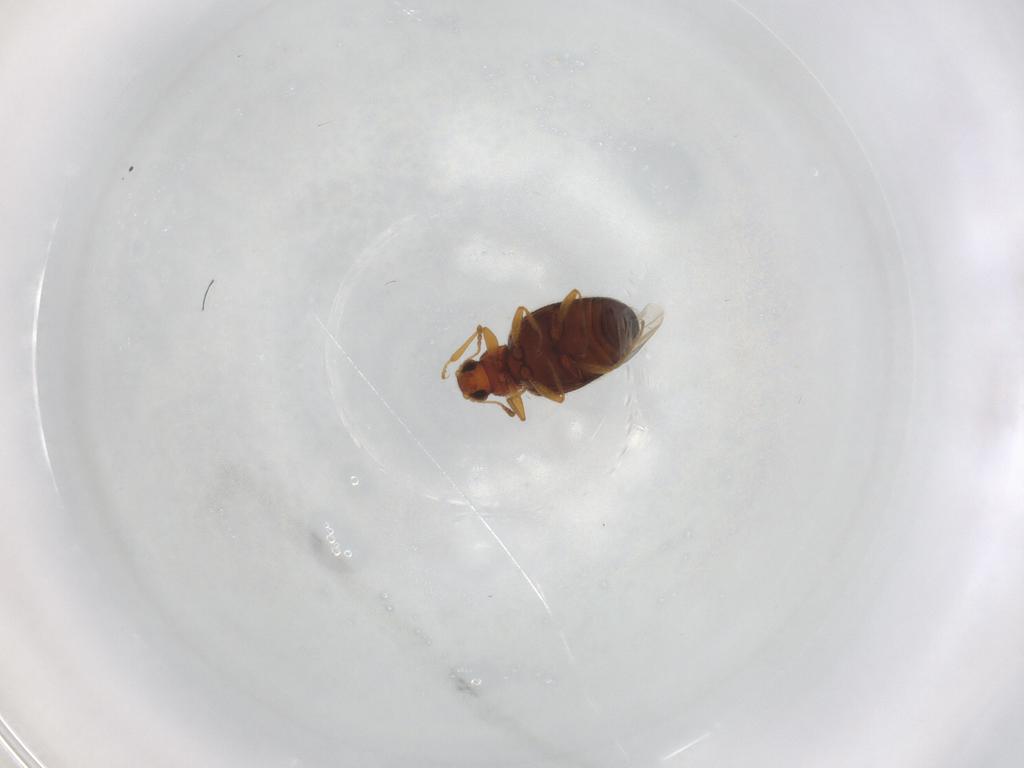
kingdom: Animalia
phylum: Arthropoda
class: Insecta
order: Coleoptera
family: Latridiidae
